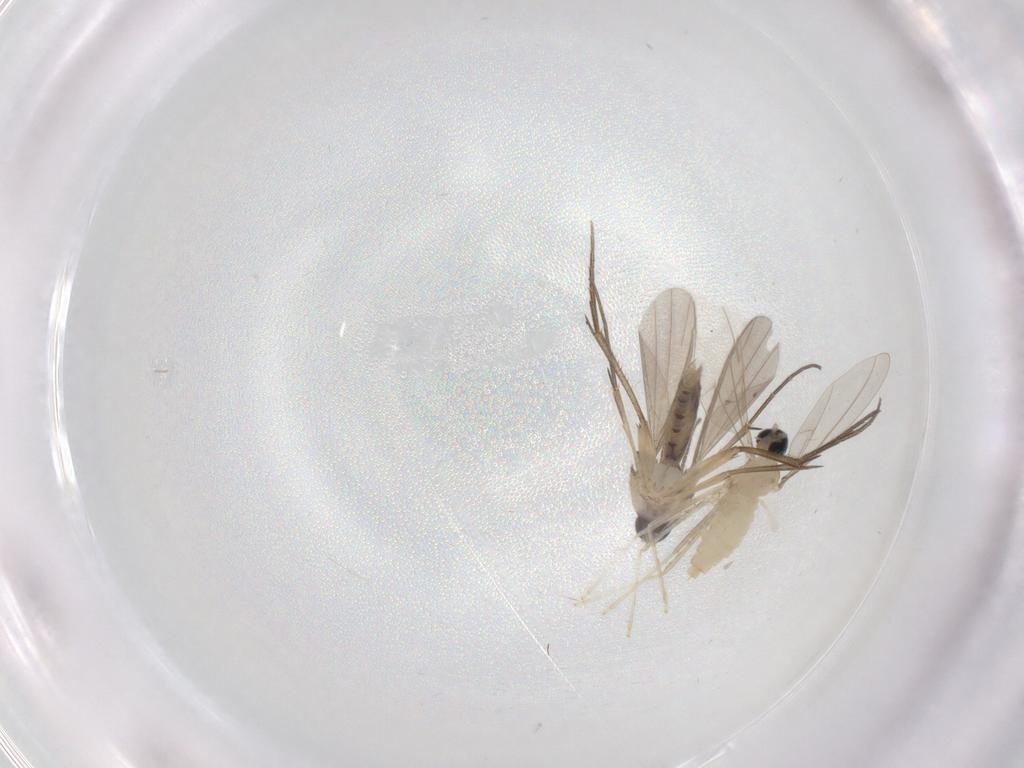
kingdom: Animalia
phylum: Arthropoda
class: Insecta
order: Diptera
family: Mycetophilidae
